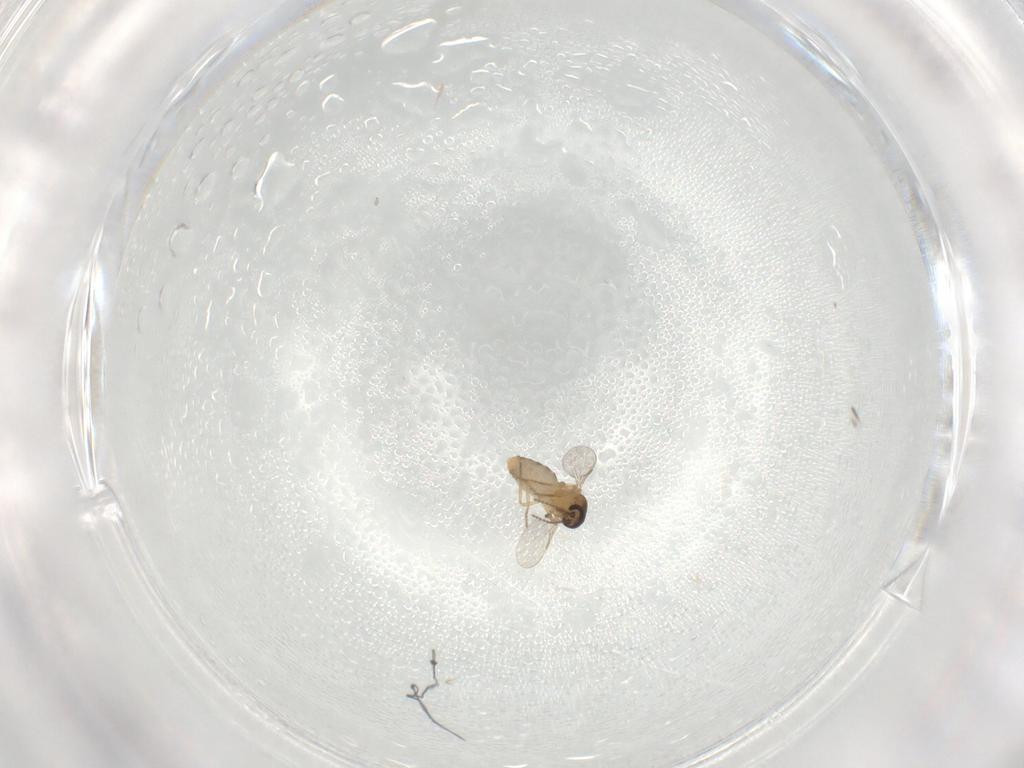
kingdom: Animalia
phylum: Arthropoda
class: Insecta
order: Diptera
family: Ceratopogonidae
